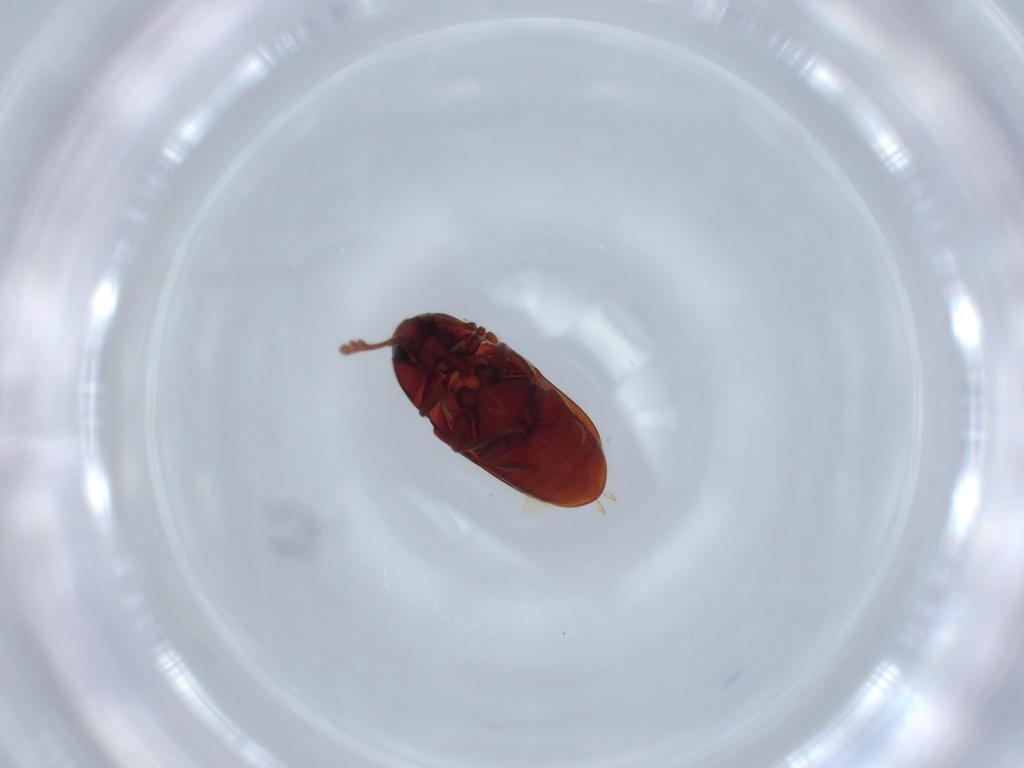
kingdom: Animalia
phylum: Arthropoda
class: Insecta
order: Coleoptera
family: Throscidae
